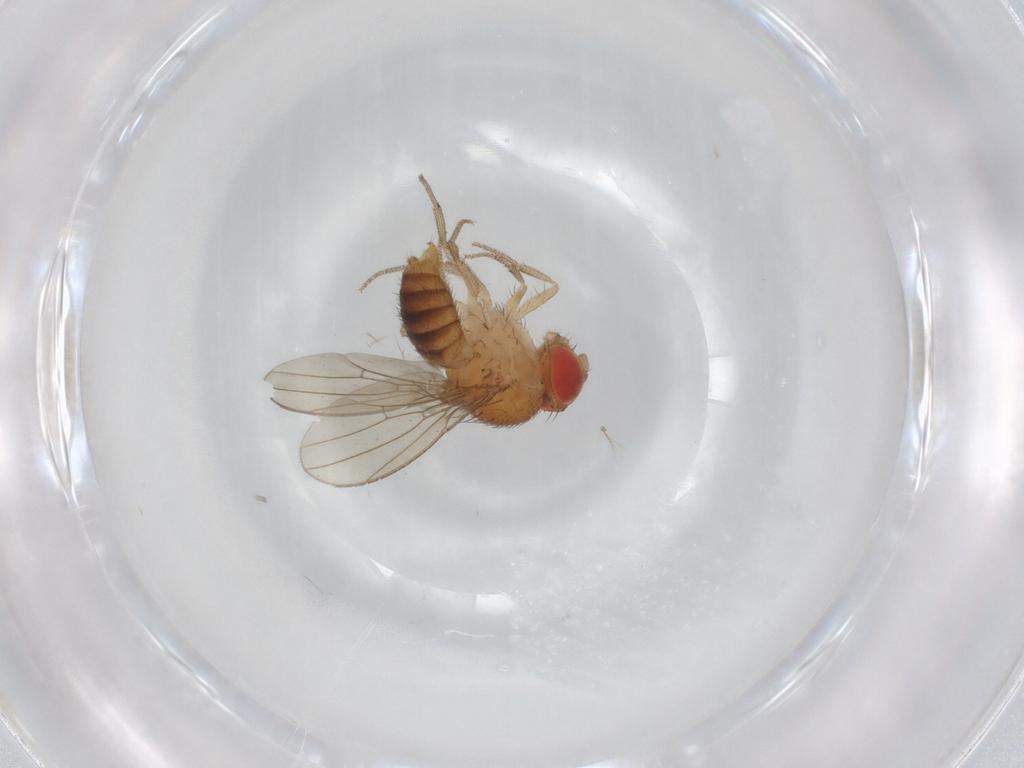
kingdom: Animalia
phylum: Arthropoda
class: Insecta
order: Diptera
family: Drosophilidae
